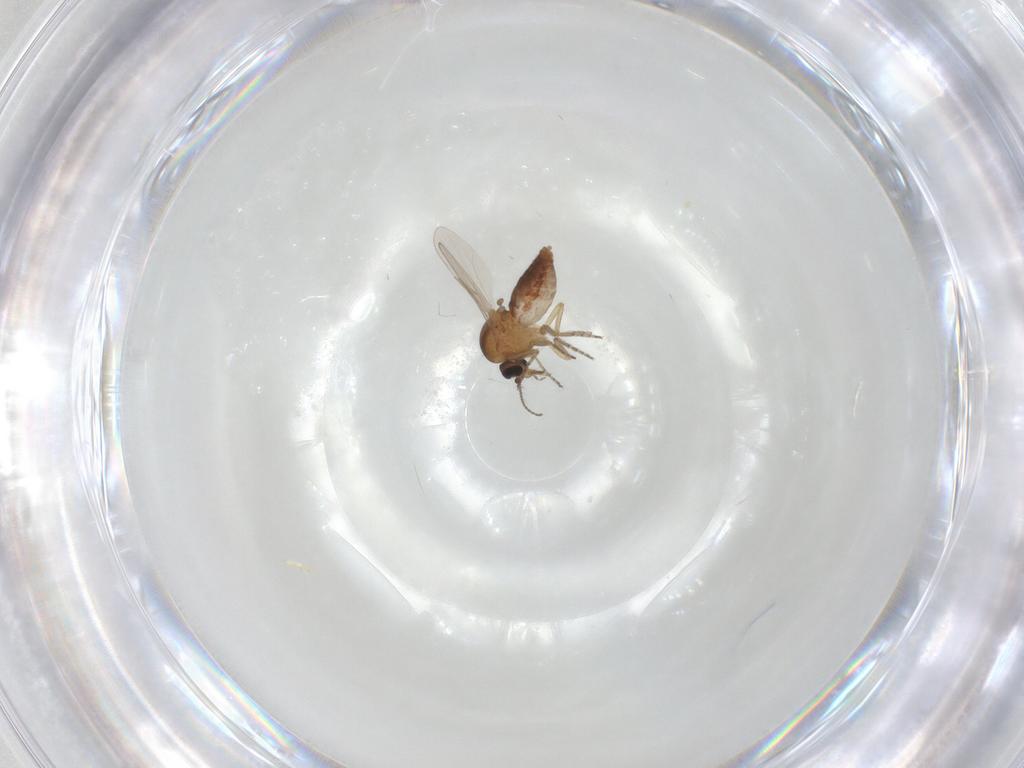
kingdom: Animalia
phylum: Arthropoda
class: Insecta
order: Diptera
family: Ceratopogonidae
